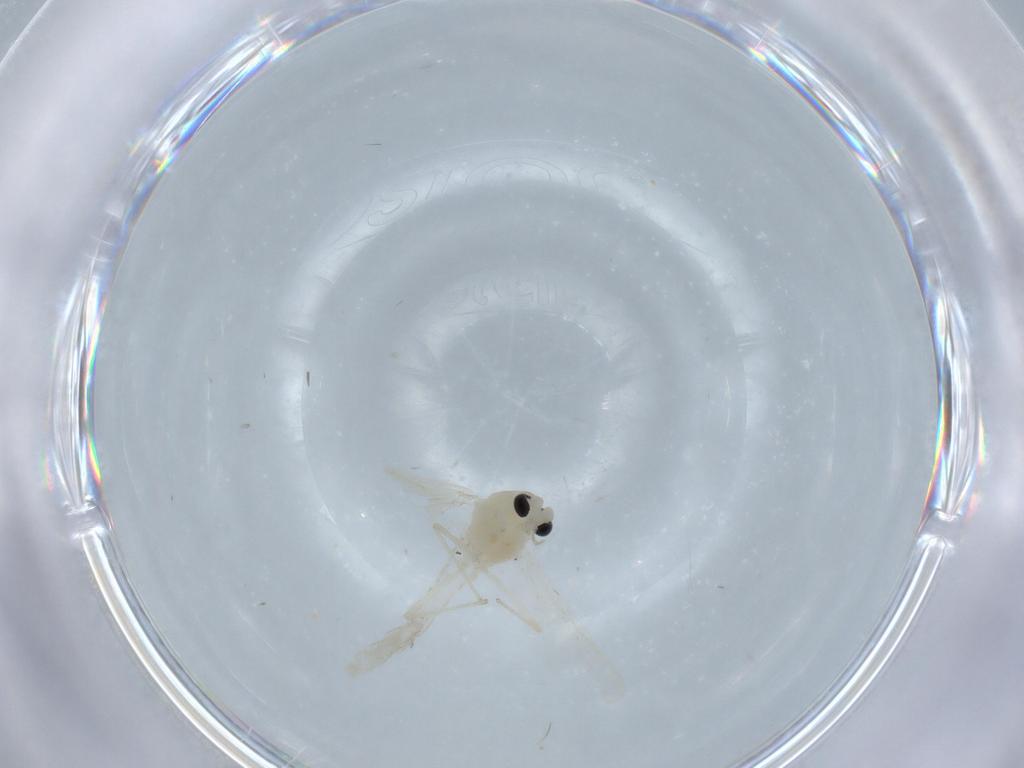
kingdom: Animalia
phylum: Arthropoda
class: Insecta
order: Diptera
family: Chironomidae
